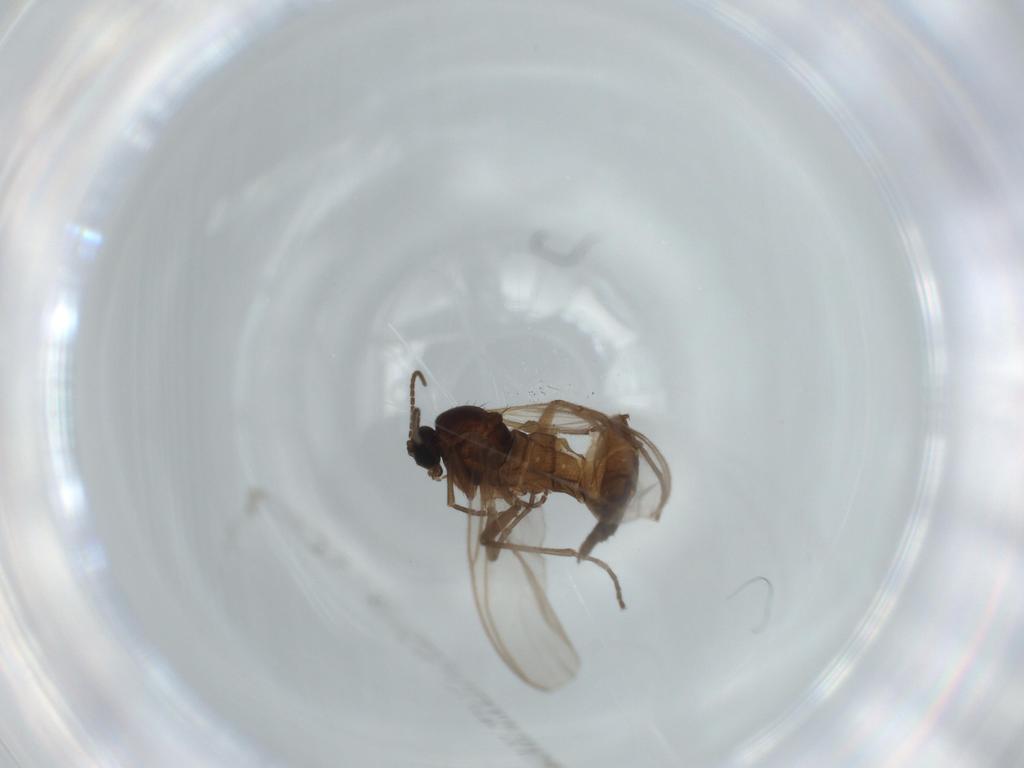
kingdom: Animalia
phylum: Arthropoda
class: Insecta
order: Diptera
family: Sciaridae
